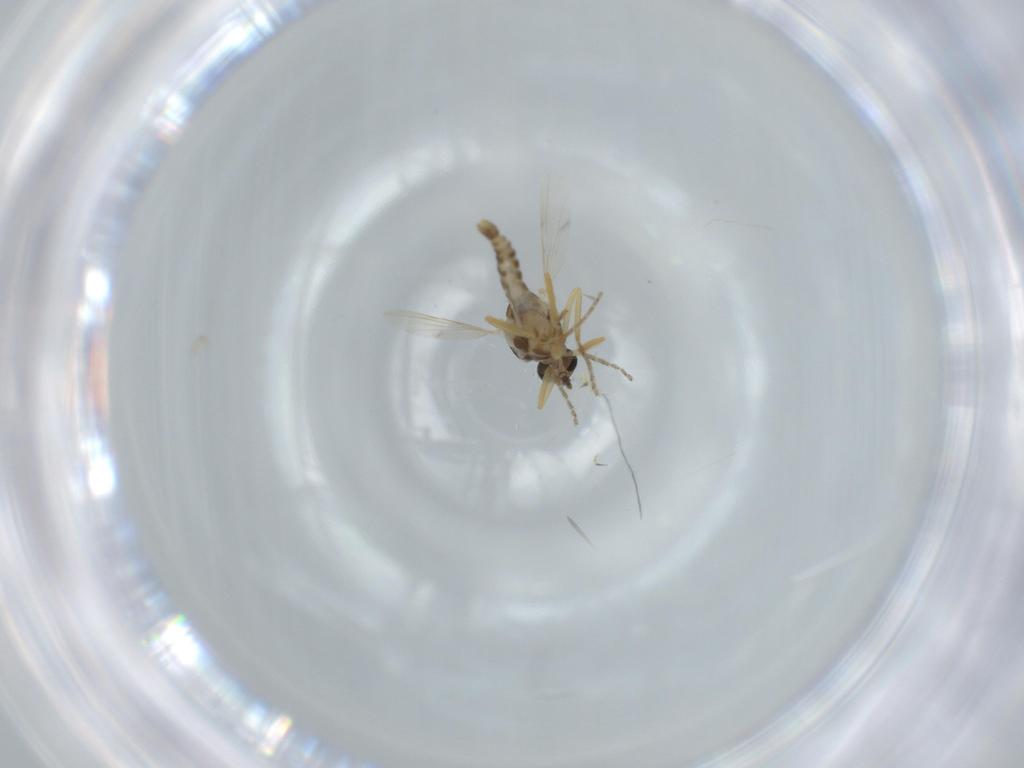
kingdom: Animalia
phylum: Arthropoda
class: Insecta
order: Diptera
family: Ceratopogonidae
